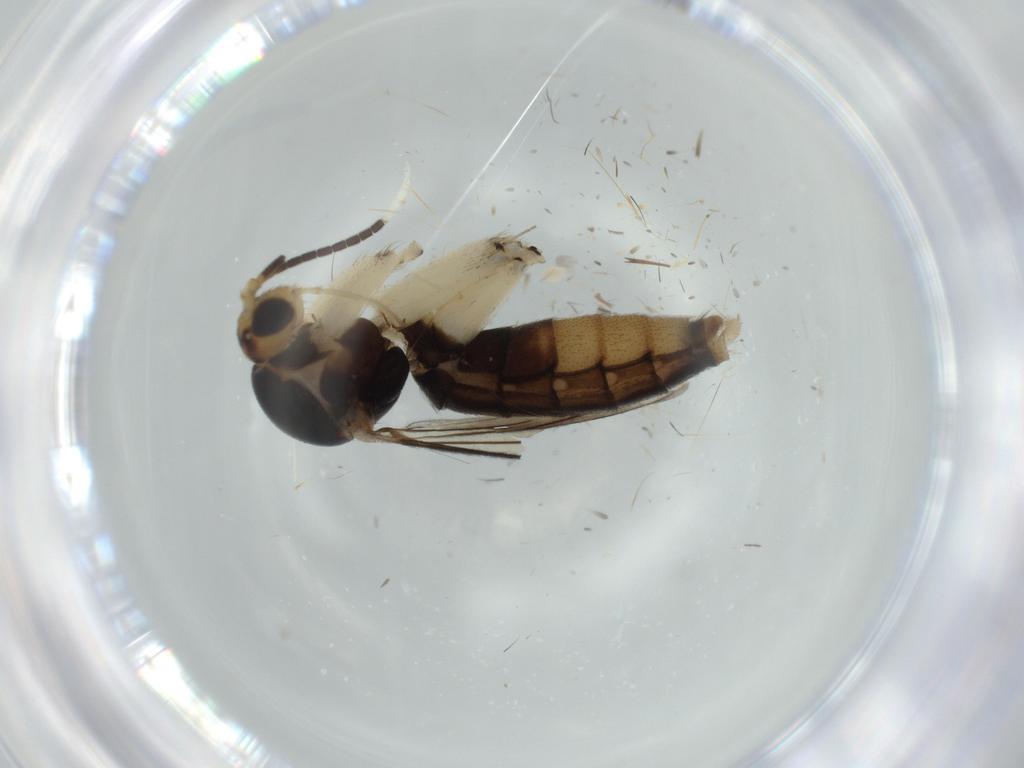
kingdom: Animalia
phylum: Arthropoda
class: Insecta
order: Diptera
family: Mycetophilidae
